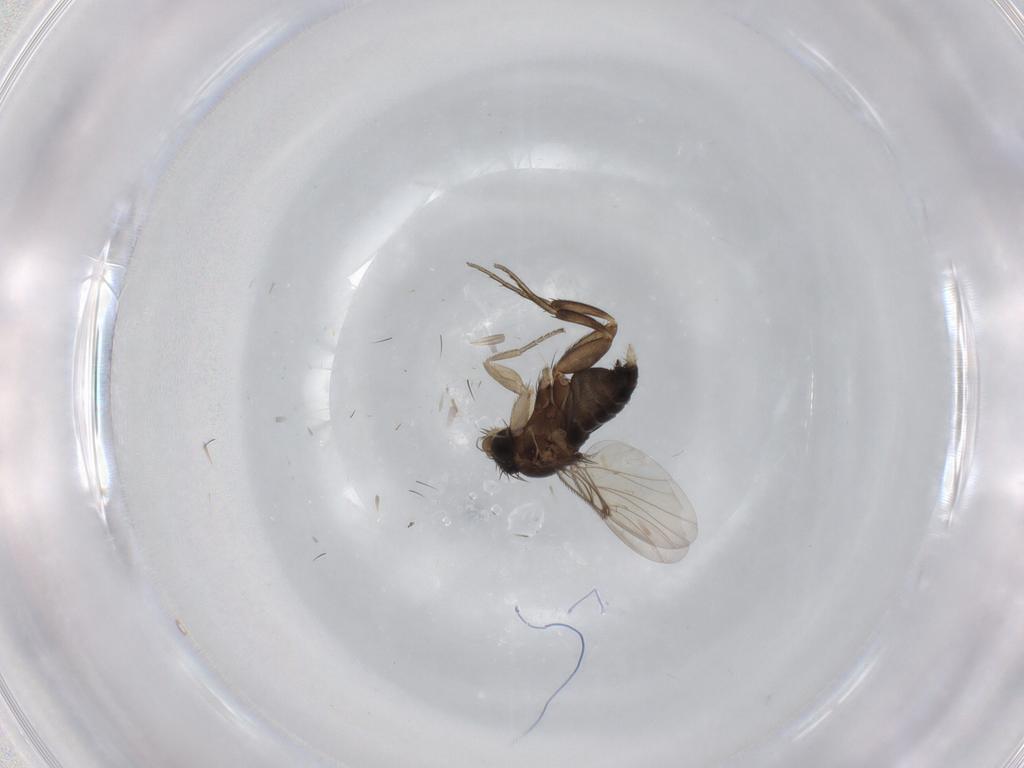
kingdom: Animalia
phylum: Arthropoda
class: Insecta
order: Diptera
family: Phoridae
